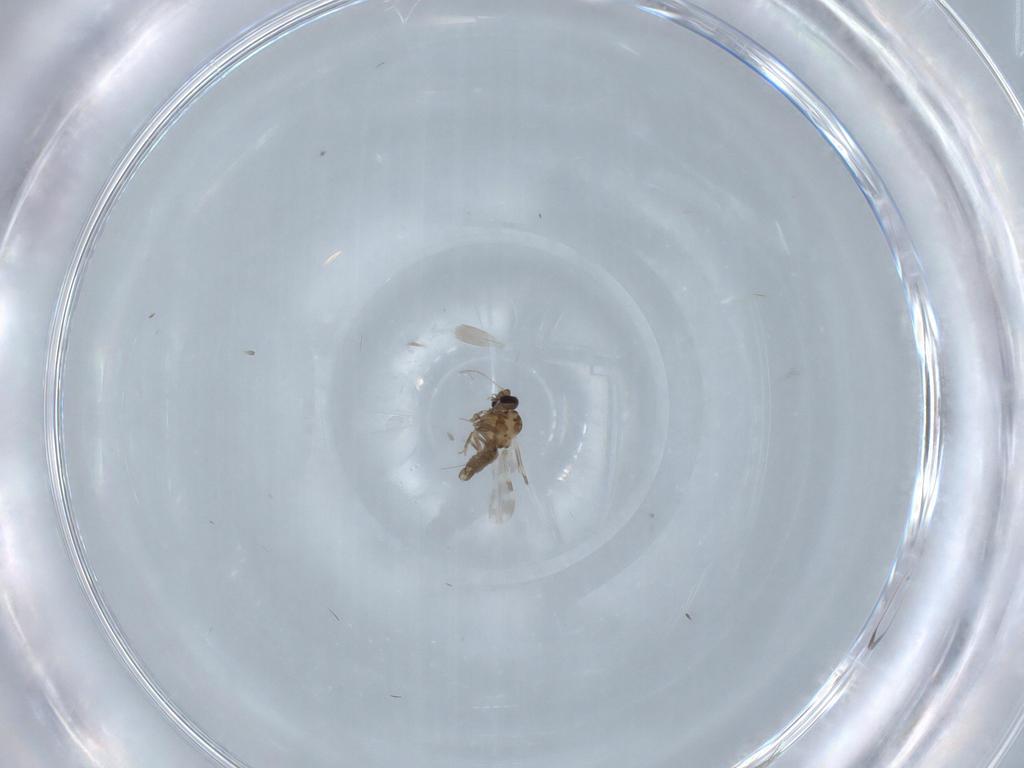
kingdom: Animalia
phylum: Arthropoda
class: Insecta
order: Diptera
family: Ceratopogonidae
